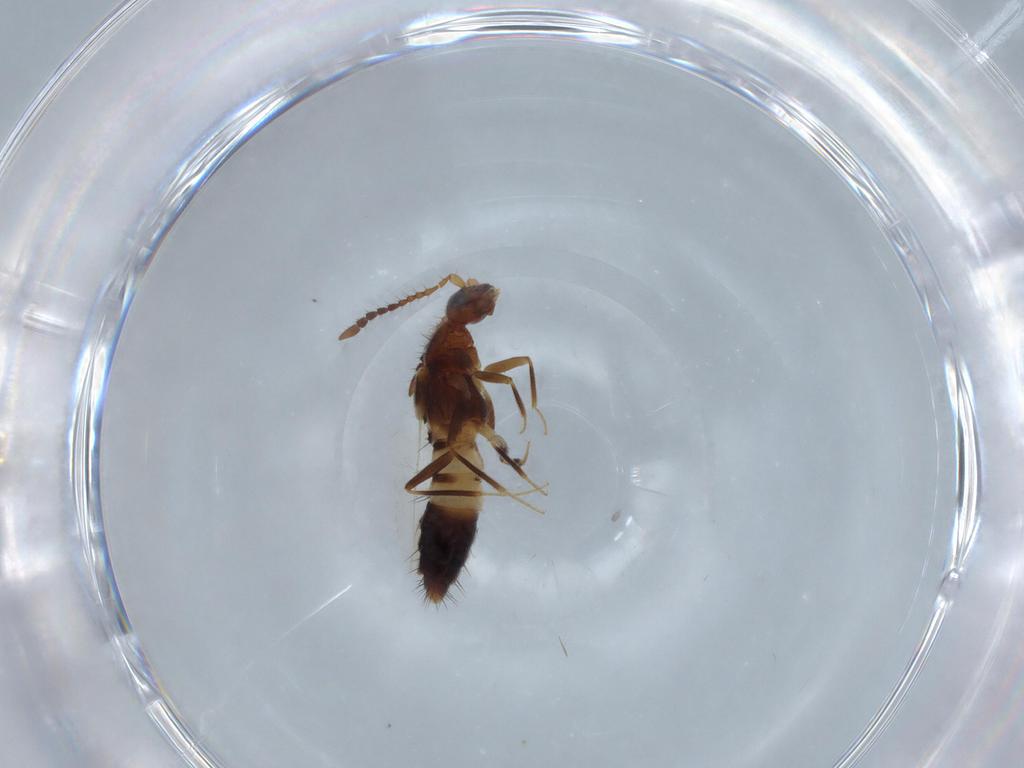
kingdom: Animalia
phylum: Arthropoda
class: Insecta
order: Coleoptera
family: Staphylinidae
